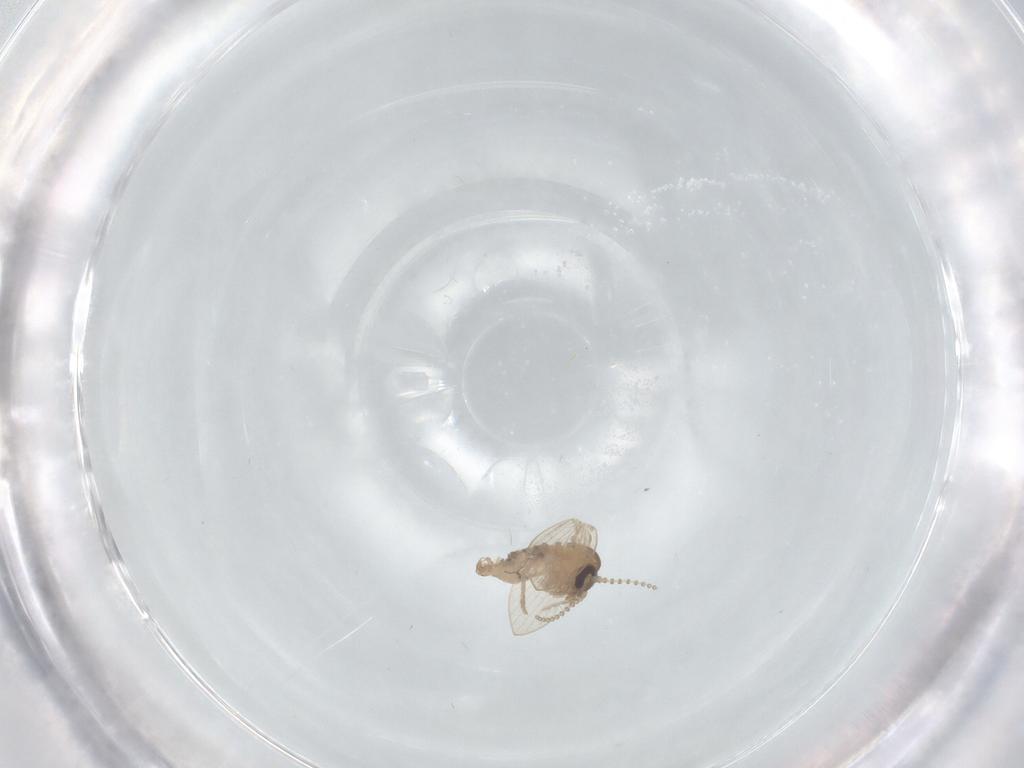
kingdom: Animalia
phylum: Arthropoda
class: Insecta
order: Diptera
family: Psychodidae
